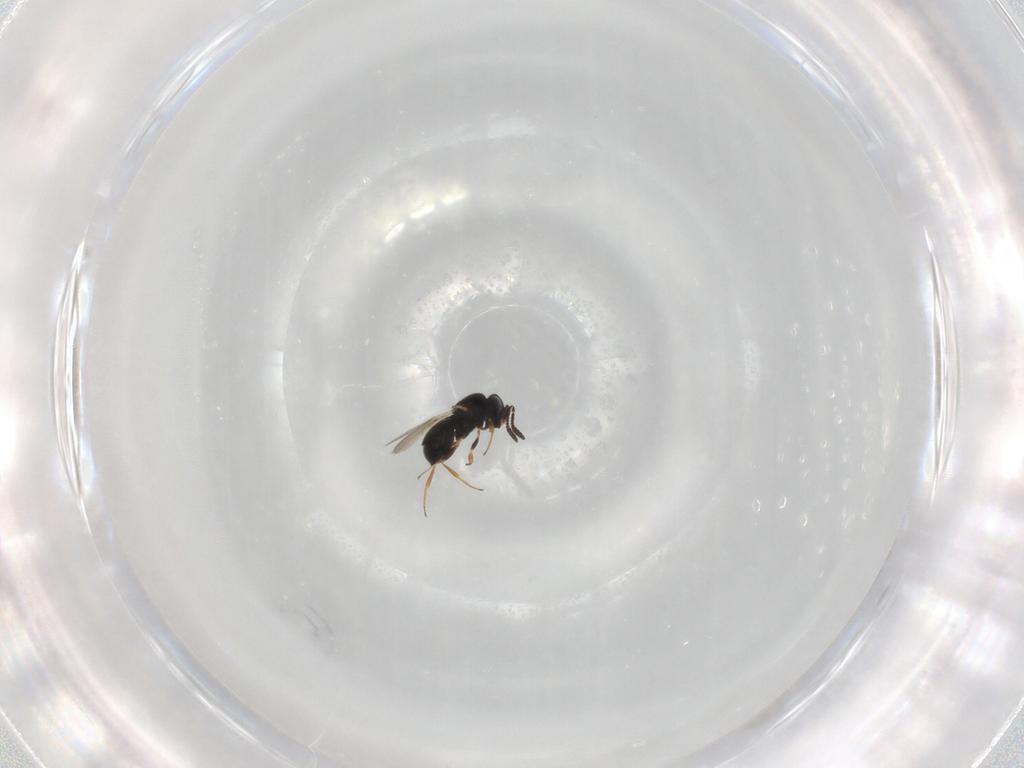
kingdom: Animalia
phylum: Arthropoda
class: Insecta
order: Hymenoptera
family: Scelionidae
